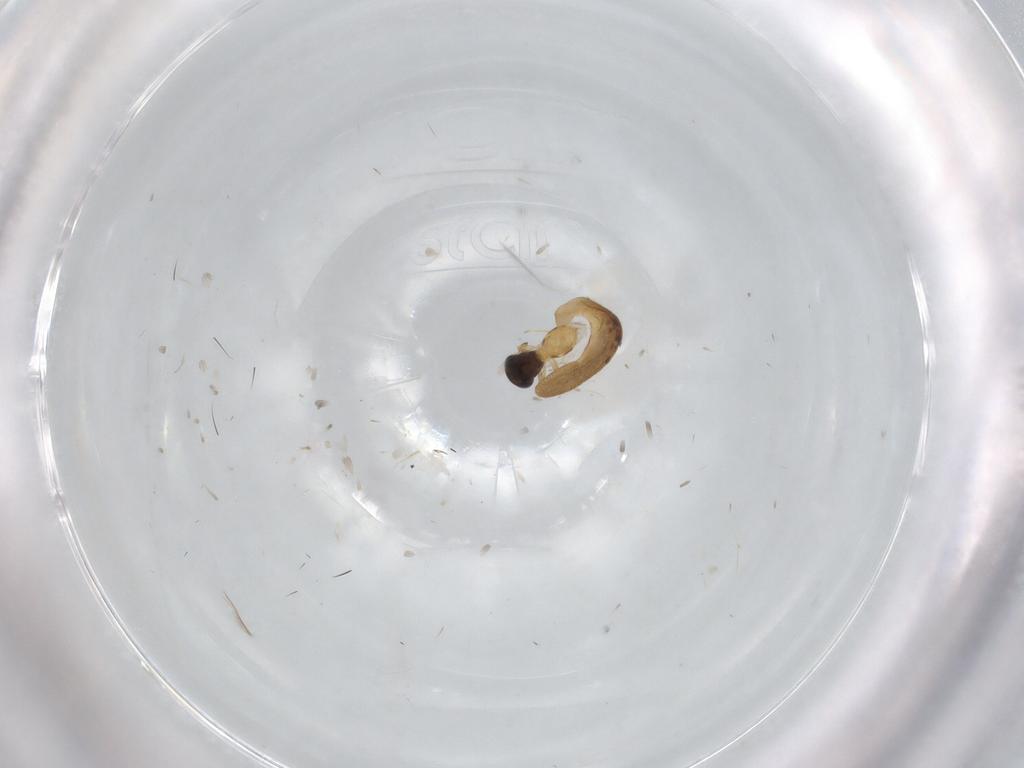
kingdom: Animalia
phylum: Arthropoda
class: Insecta
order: Hymenoptera
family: Scelionidae
